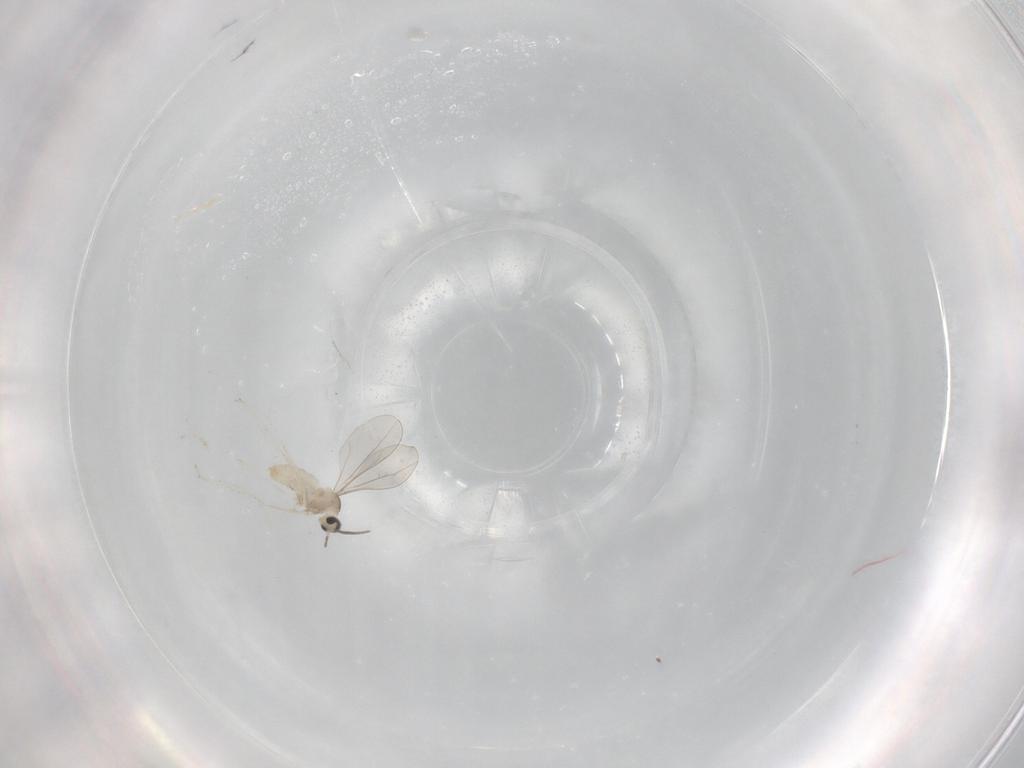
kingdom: Animalia
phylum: Arthropoda
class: Insecta
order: Diptera
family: Cecidomyiidae
